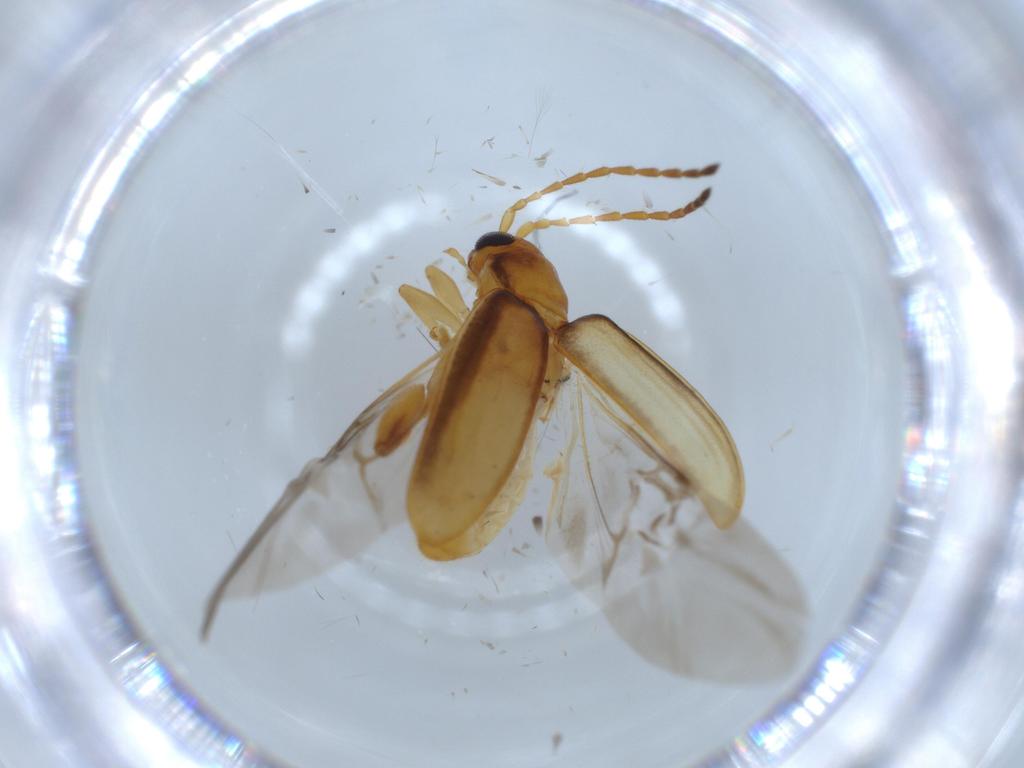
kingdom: Animalia
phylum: Arthropoda
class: Insecta
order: Coleoptera
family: Chrysomelidae
